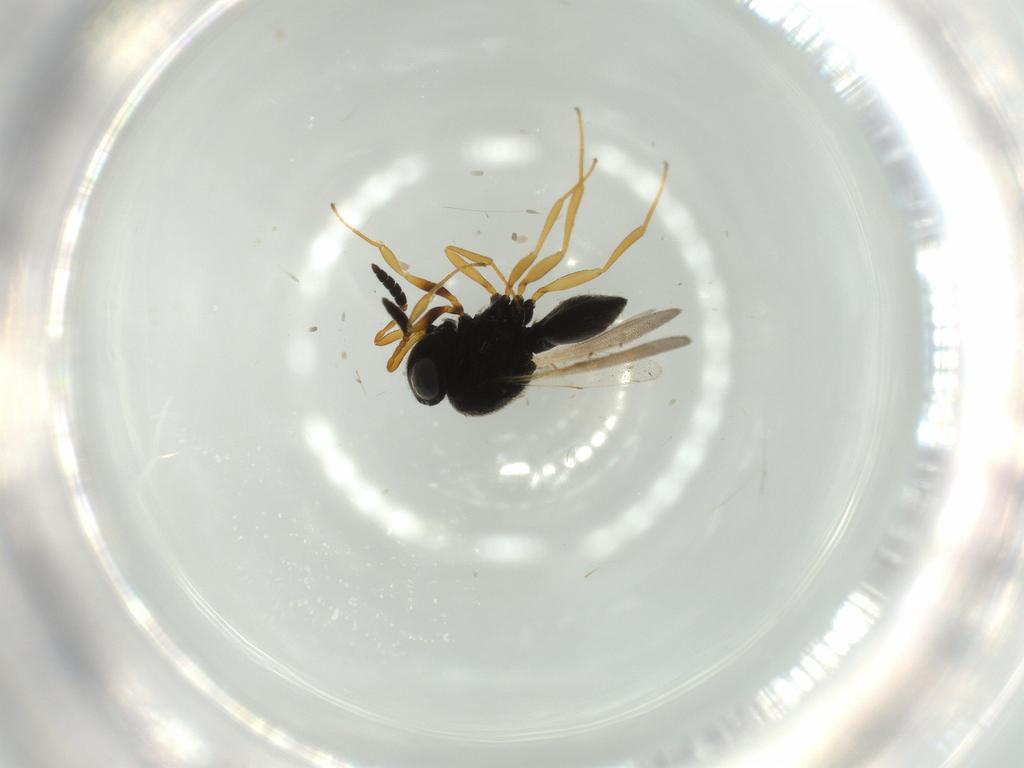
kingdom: Animalia
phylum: Arthropoda
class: Insecta
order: Hymenoptera
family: Scelionidae
